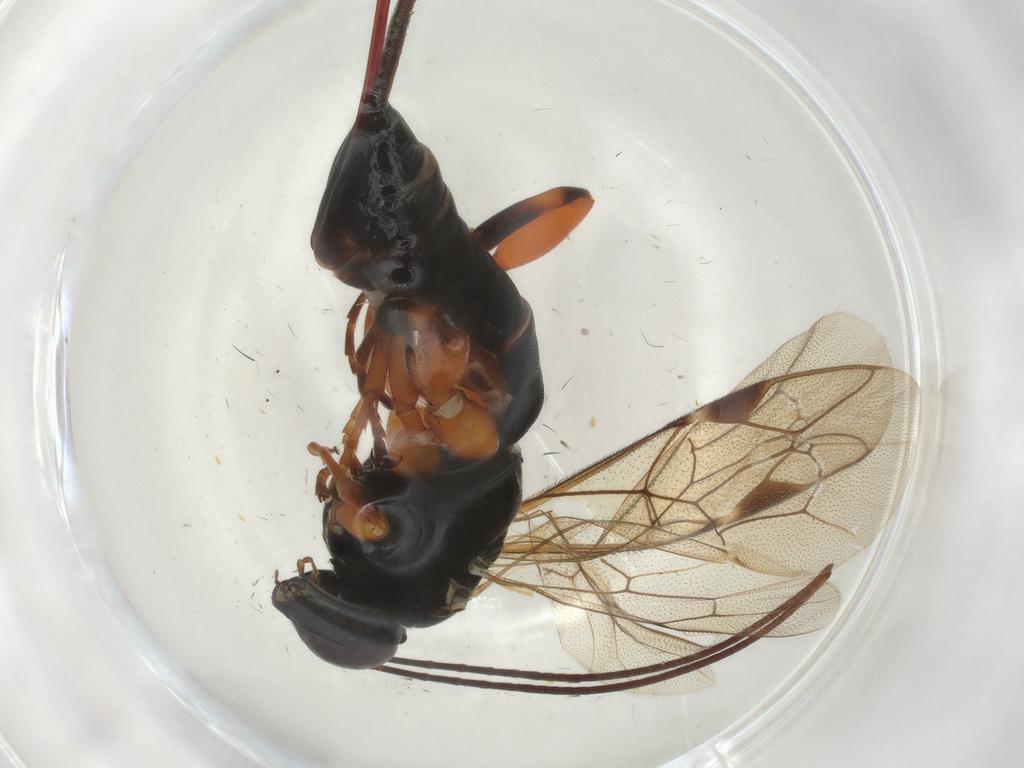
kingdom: Animalia
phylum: Arthropoda
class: Insecta
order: Hymenoptera
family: Ichneumonidae
